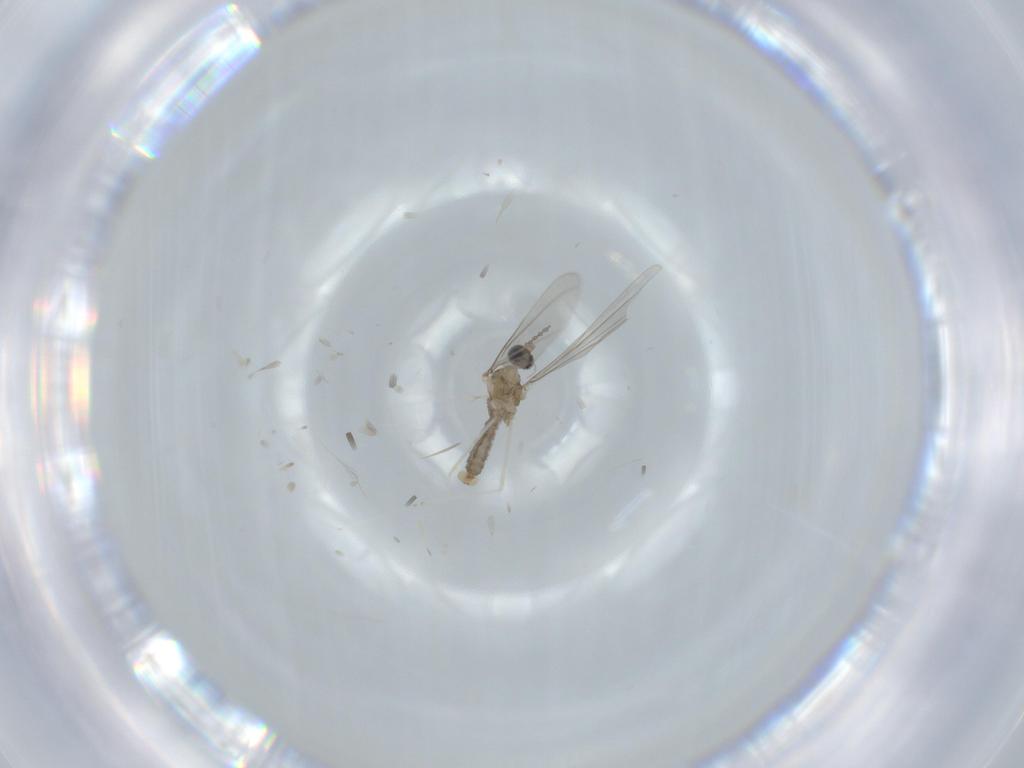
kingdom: Animalia
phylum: Arthropoda
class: Insecta
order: Diptera
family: Cecidomyiidae
